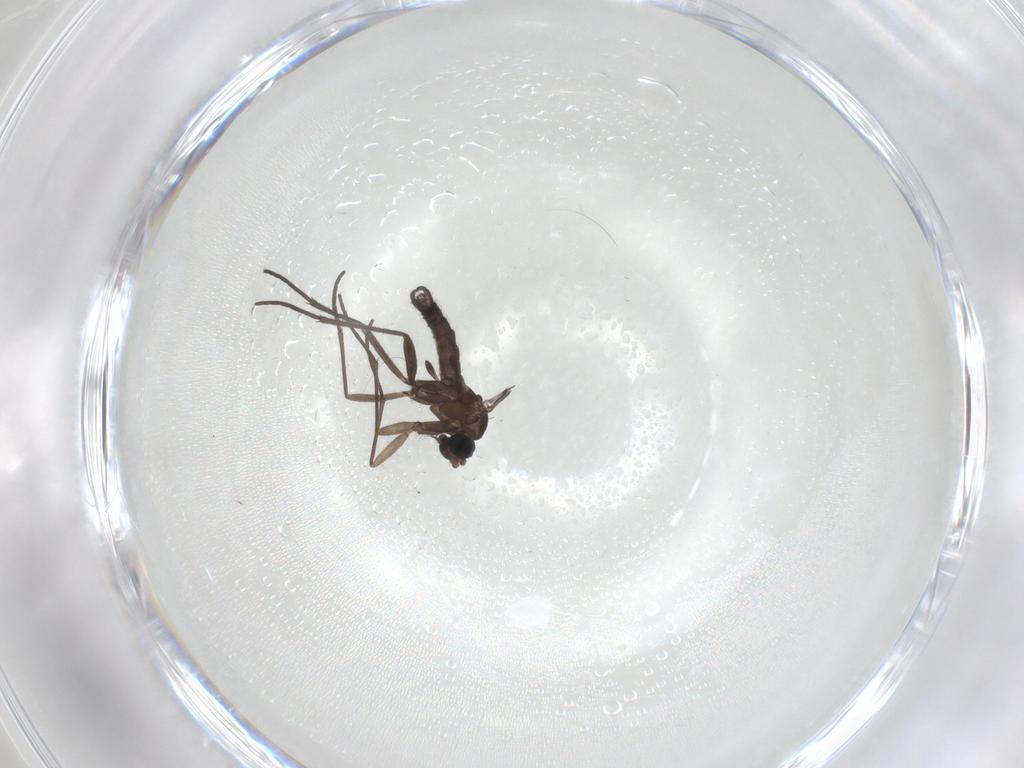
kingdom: Animalia
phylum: Arthropoda
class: Insecta
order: Diptera
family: Sciaridae
